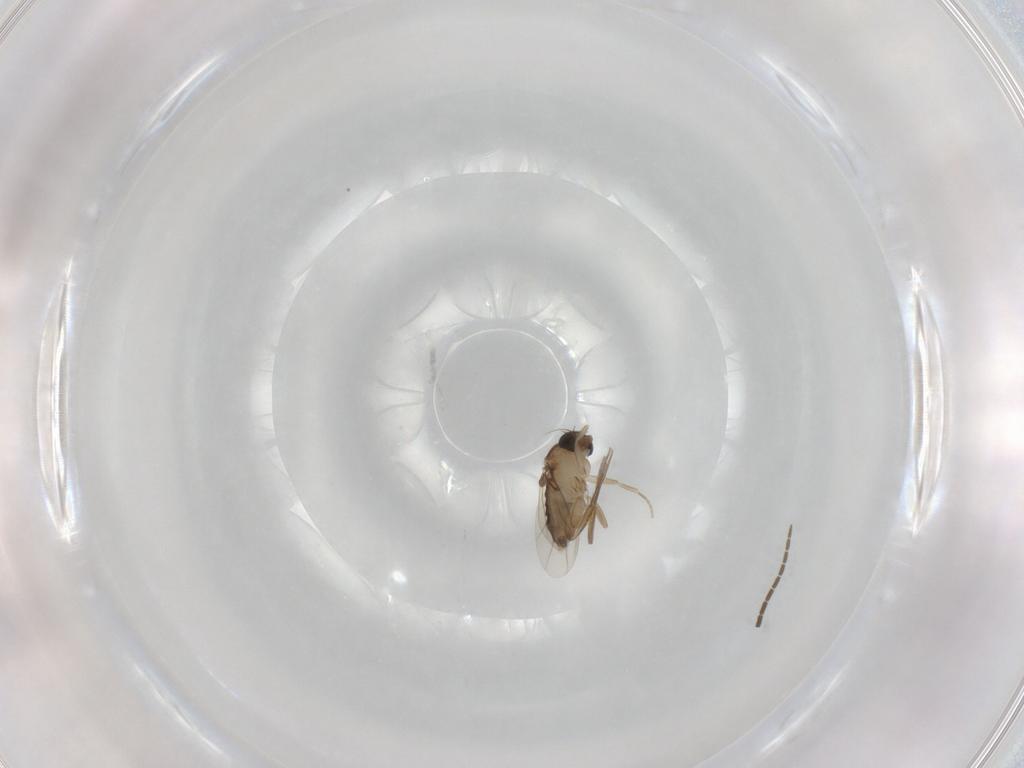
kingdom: Animalia
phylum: Arthropoda
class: Insecta
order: Diptera
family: Phoridae
